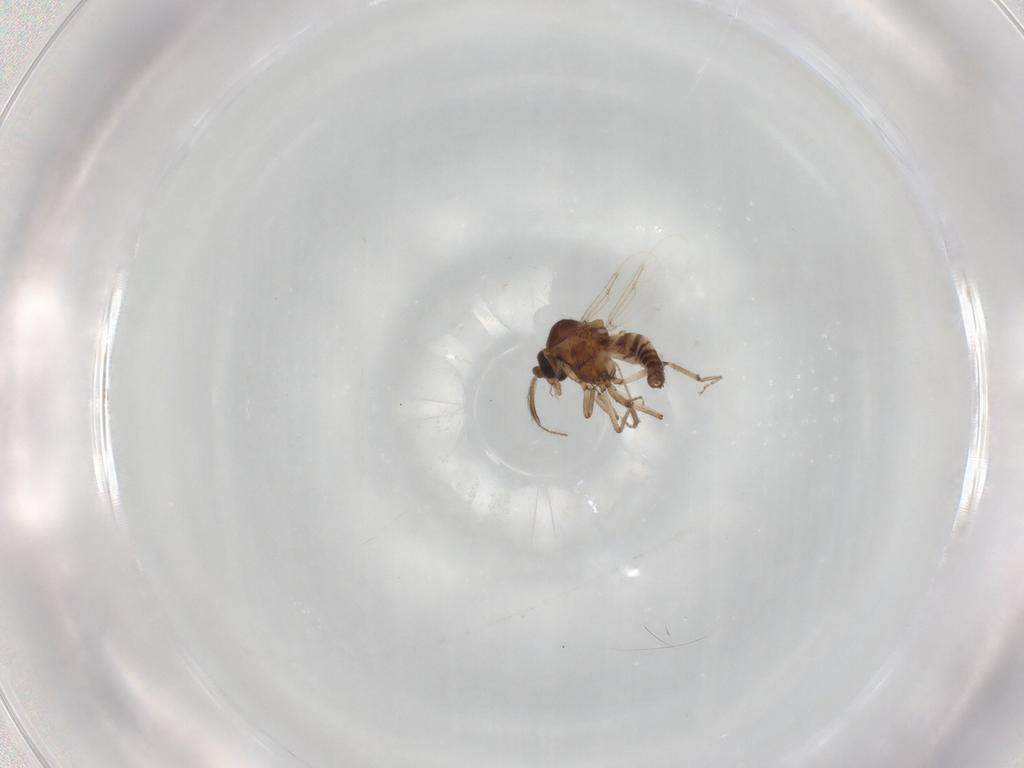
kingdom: Animalia
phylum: Arthropoda
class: Insecta
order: Diptera
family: Ceratopogonidae
